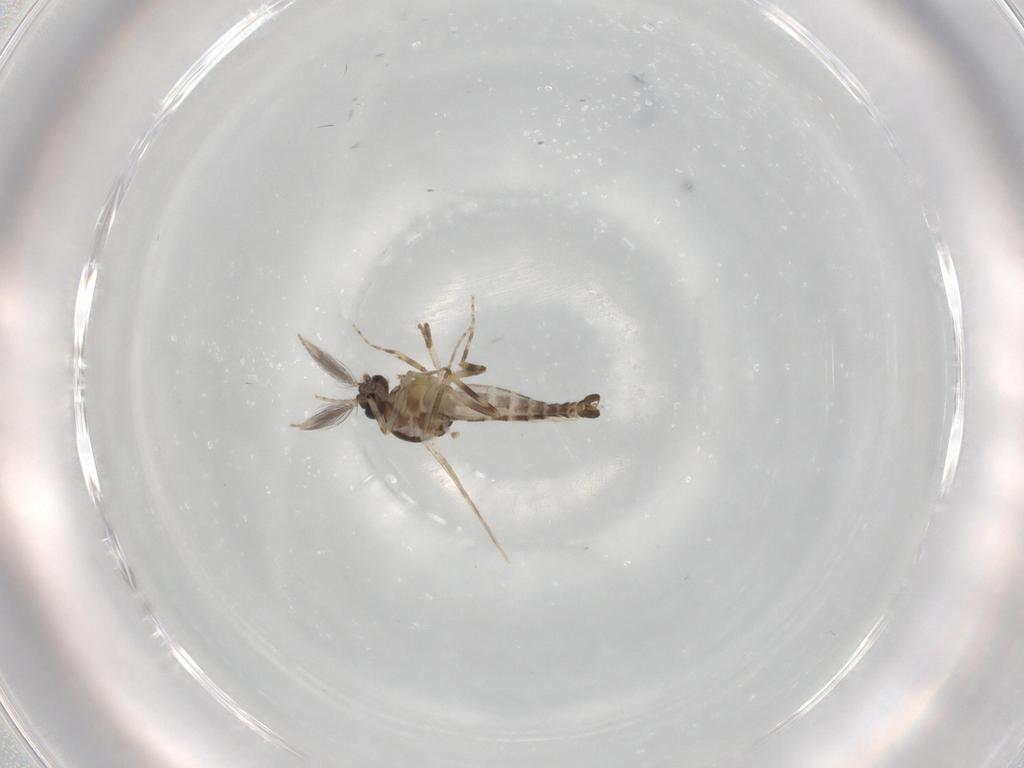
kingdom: Animalia
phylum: Arthropoda
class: Insecta
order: Diptera
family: Ceratopogonidae
